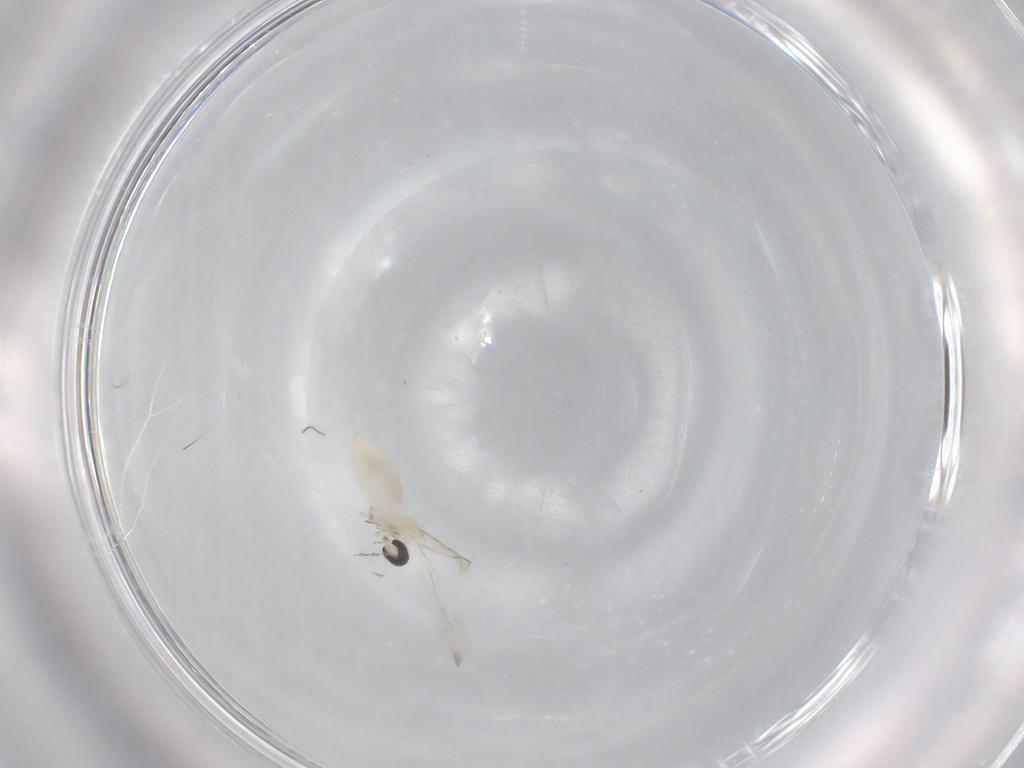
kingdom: Animalia
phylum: Arthropoda
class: Insecta
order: Diptera
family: Cecidomyiidae
